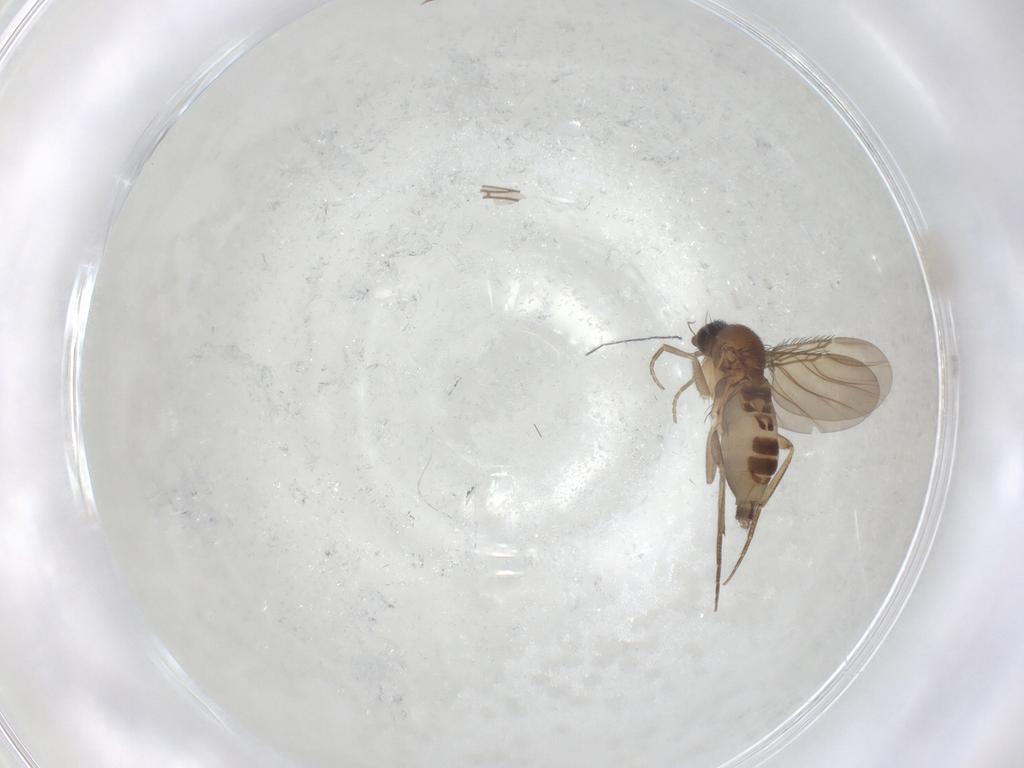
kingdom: Animalia
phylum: Arthropoda
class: Insecta
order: Diptera
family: Phoridae
